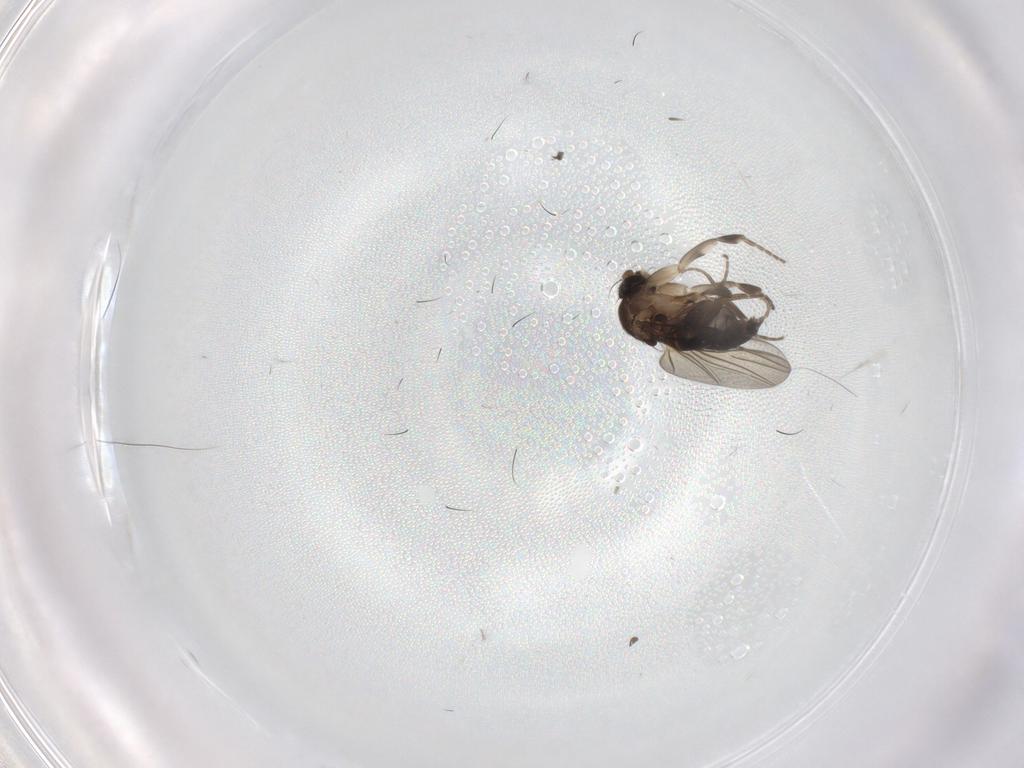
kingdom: Animalia
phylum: Arthropoda
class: Insecta
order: Diptera
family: Phoridae
